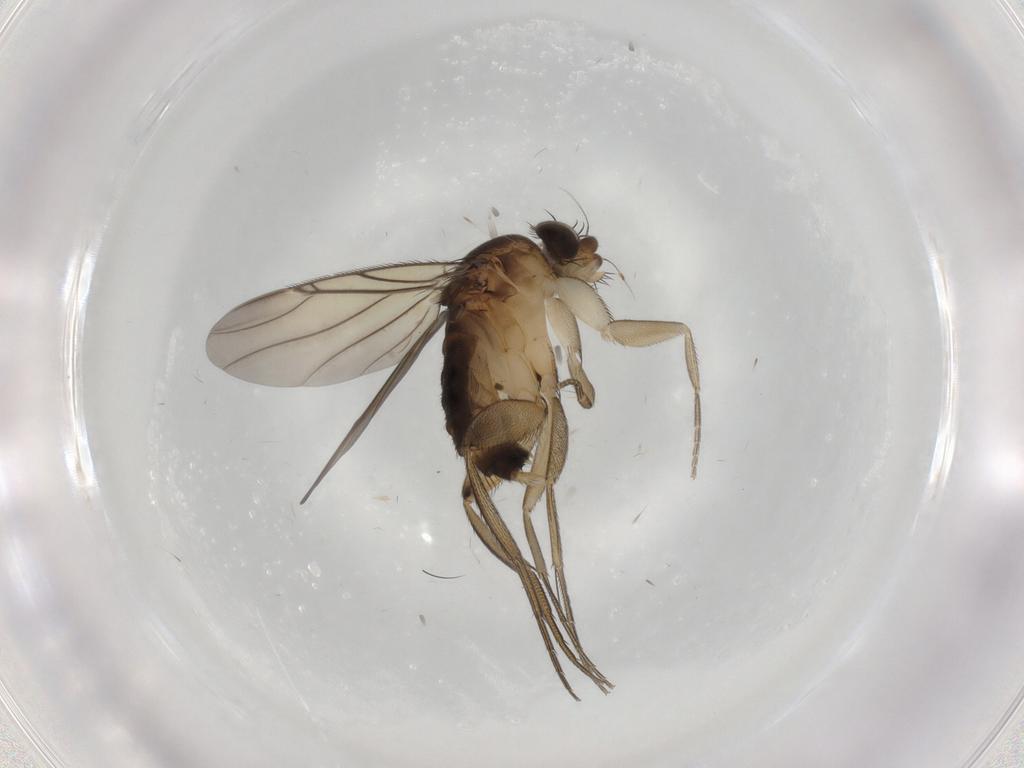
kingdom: Animalia
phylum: Arthropoda
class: Insecta
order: Diptera
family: Phoridae
